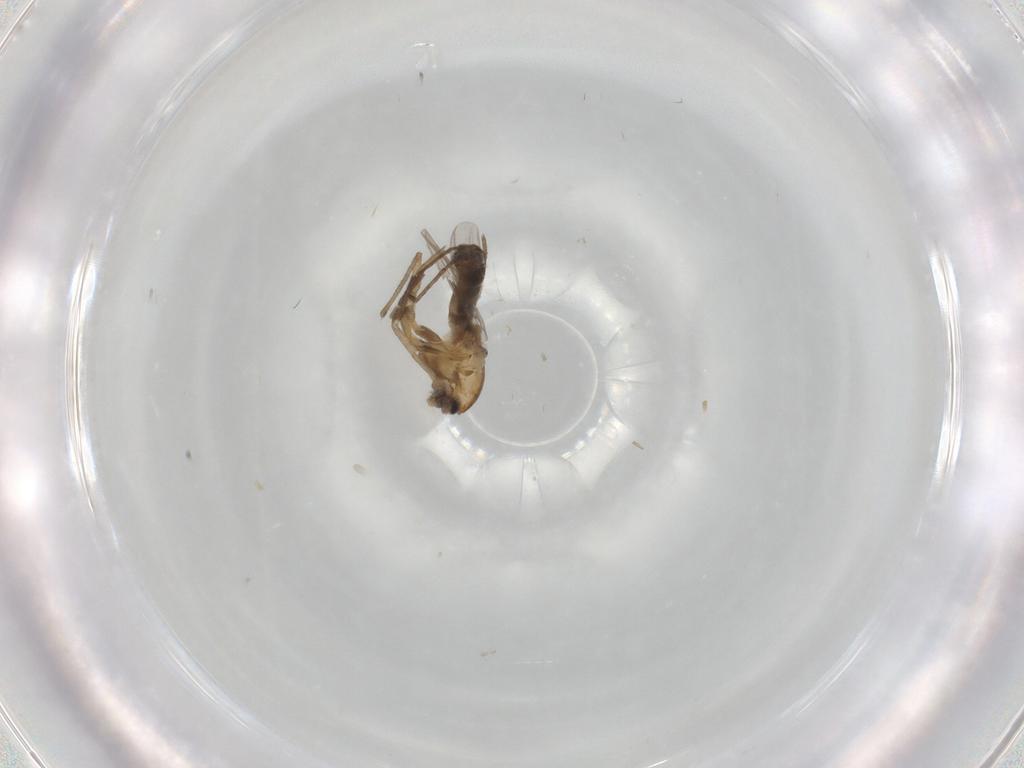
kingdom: Animalia
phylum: Arthropoda
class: Insecta
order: Diptera
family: Chironomidae
